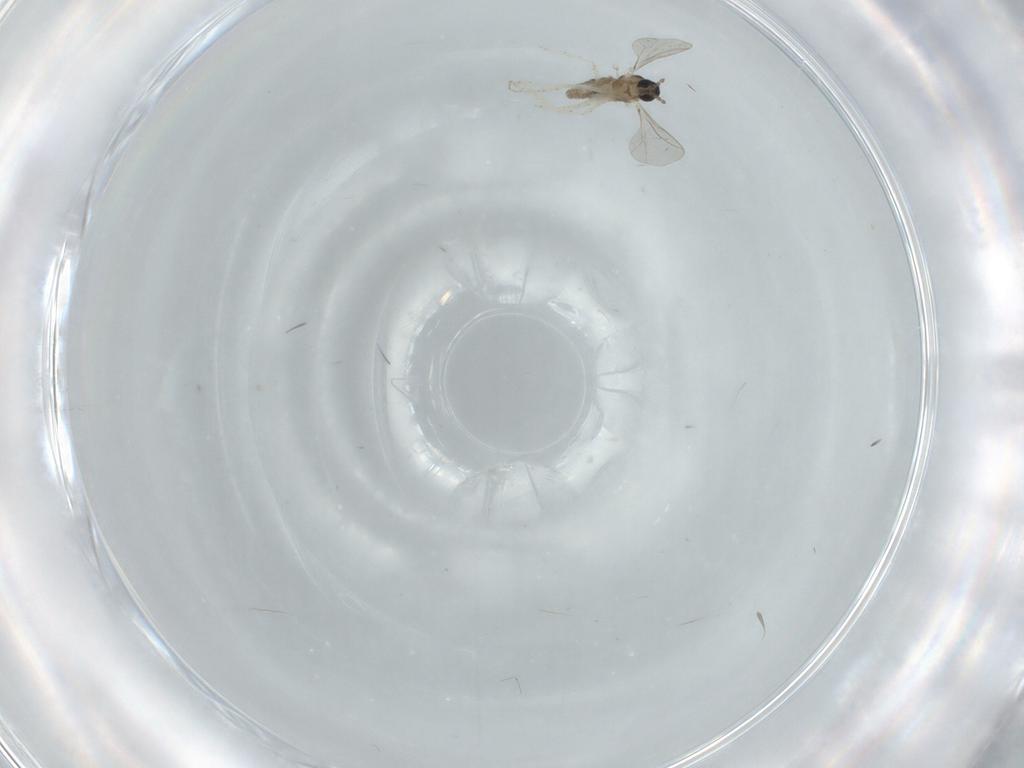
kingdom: Animalia
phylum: Arthropoda
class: Insecta
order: Diptera
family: Cecidomyiidae
